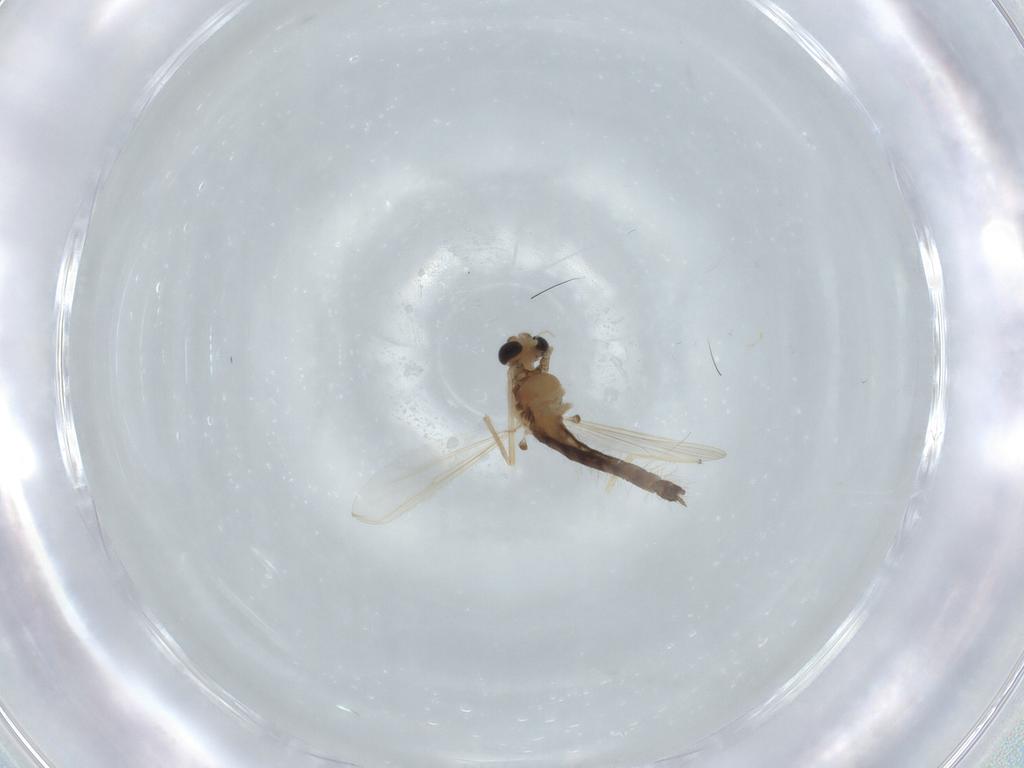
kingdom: Animalia
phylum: Arthropoda
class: Insecta
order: Diptera
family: Chironomidae
